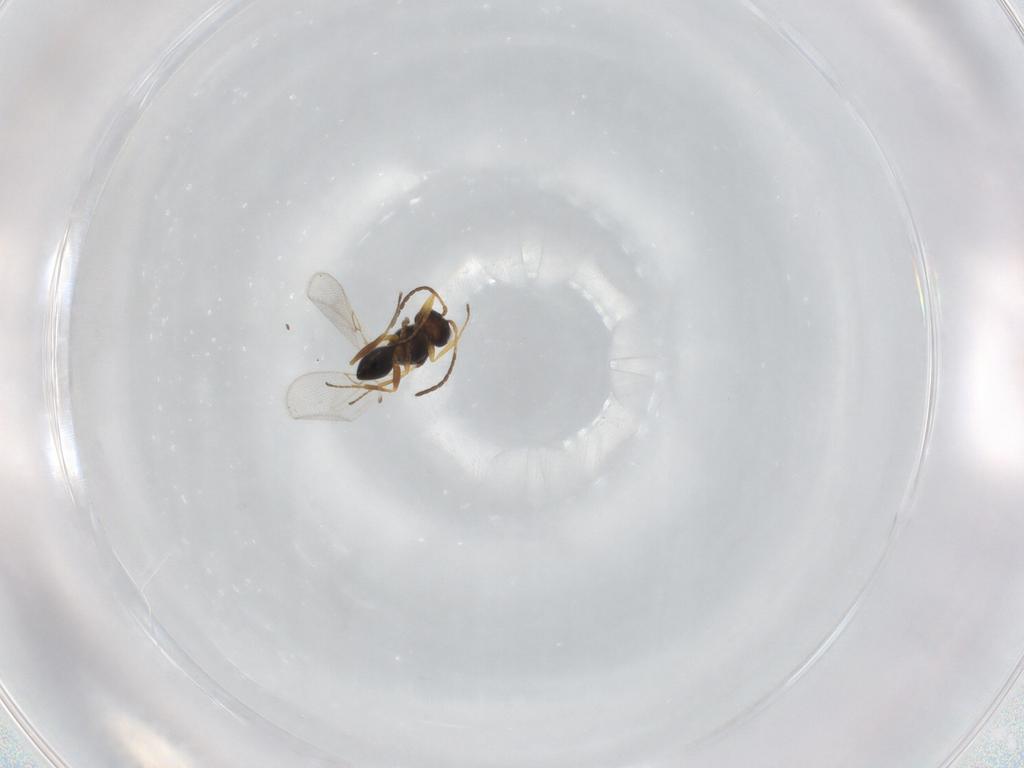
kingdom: Animalia
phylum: Arthropoda
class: Insecta
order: Hymenoptera
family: Figitidae
